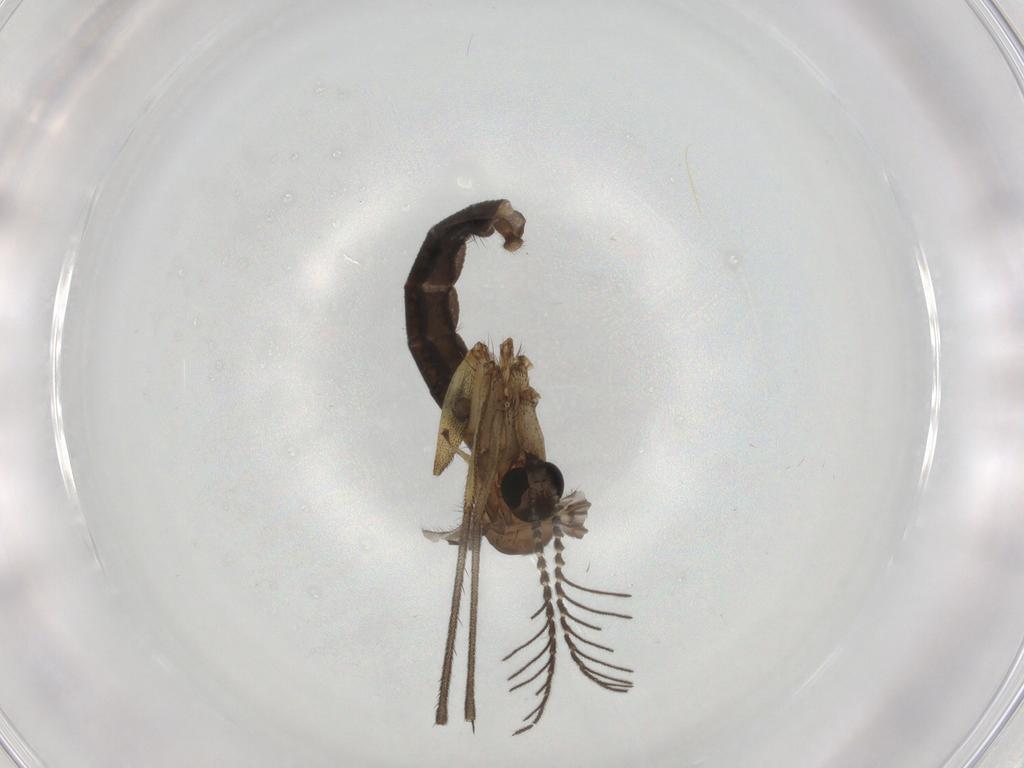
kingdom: Animalia
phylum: Arthropoda
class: Insecta
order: Diptera
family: Ditomyiidae
